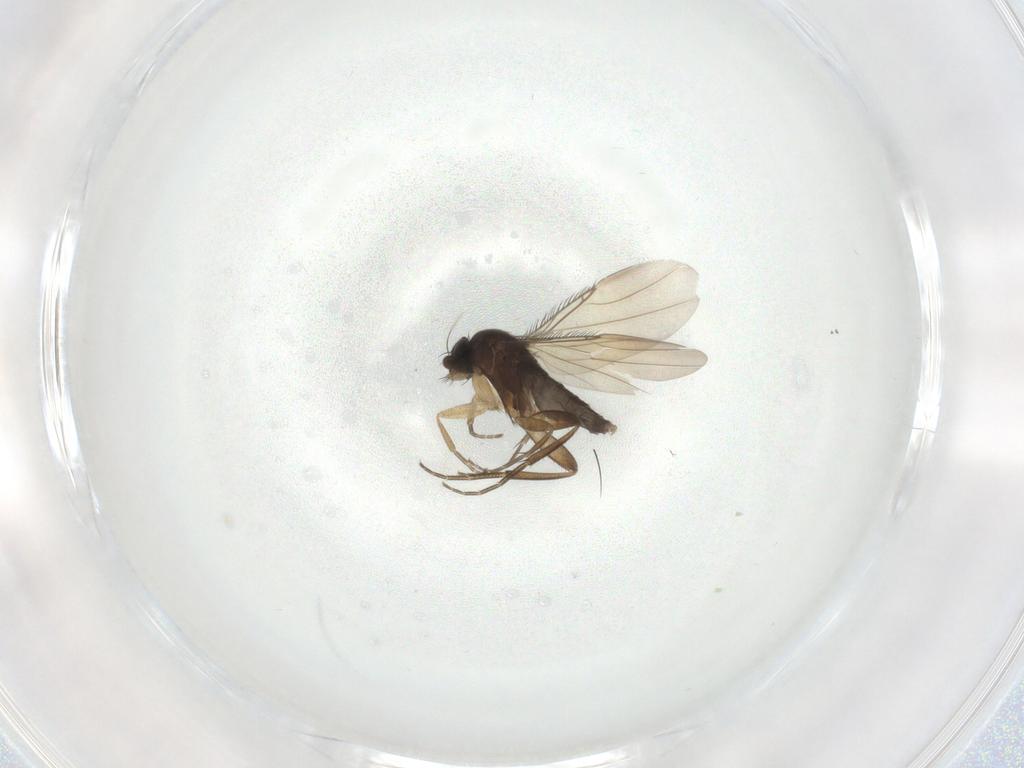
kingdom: Animalia
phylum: Arthropoda
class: Insecta
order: Diptera
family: Phoridae
